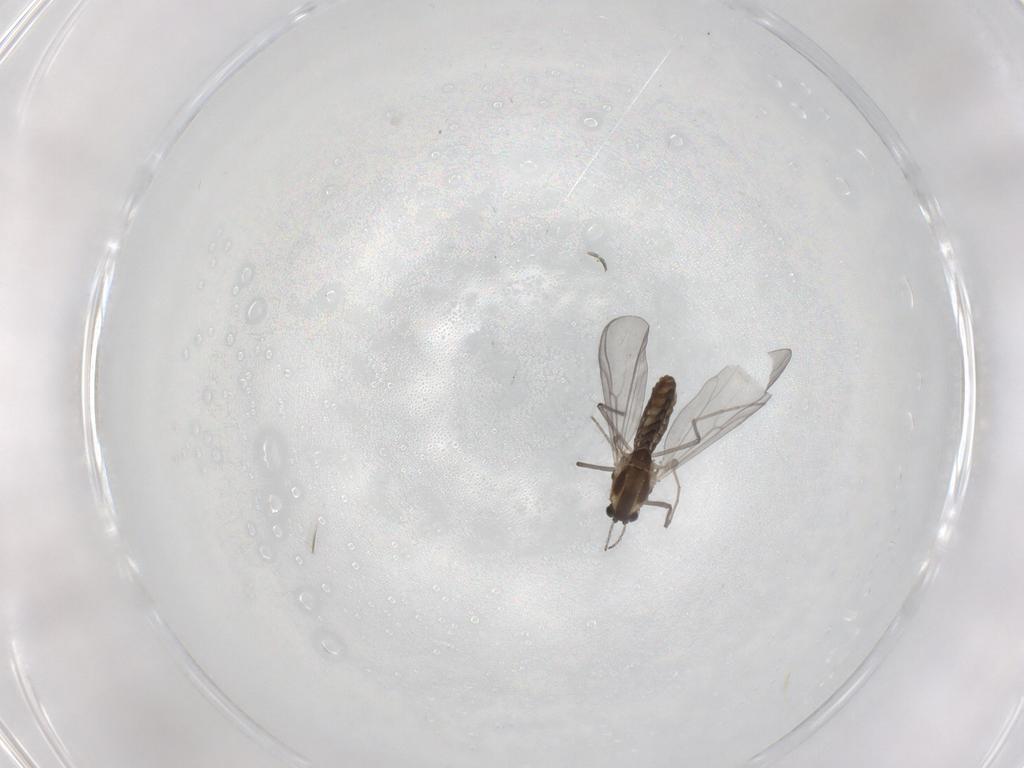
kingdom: Animalia
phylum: Arthropoda
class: Insecta
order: Diptera
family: Chironomidae
